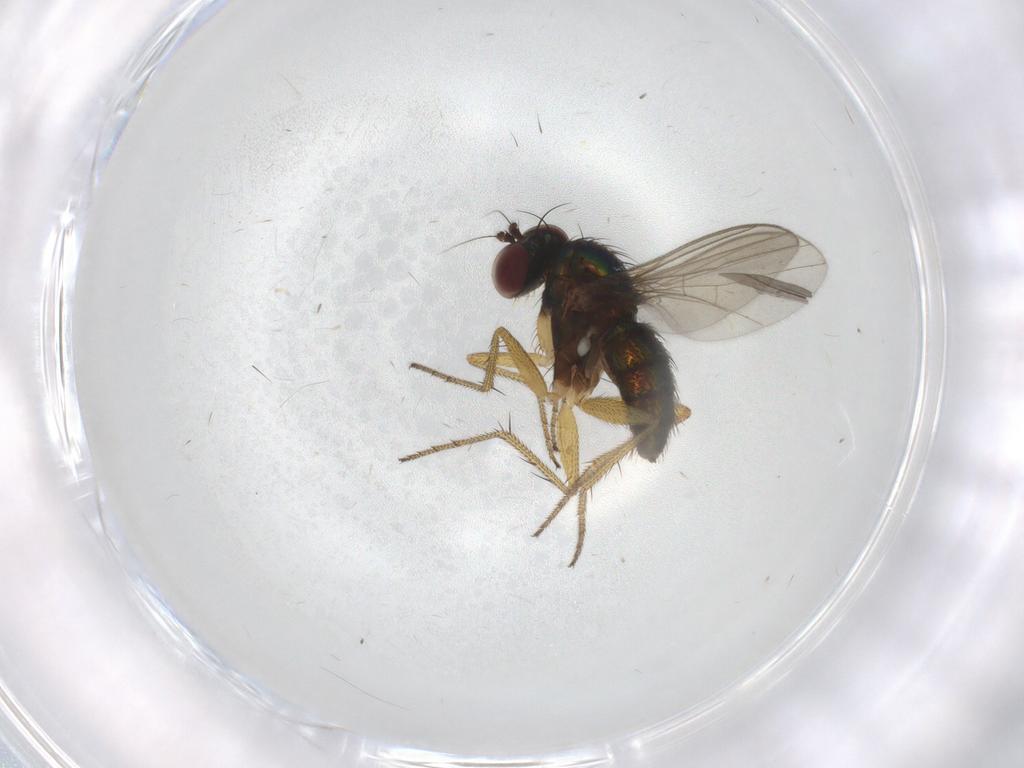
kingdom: Animalia
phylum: Arthropoda
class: Insecta
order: Diptera
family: Dolichopodidae
